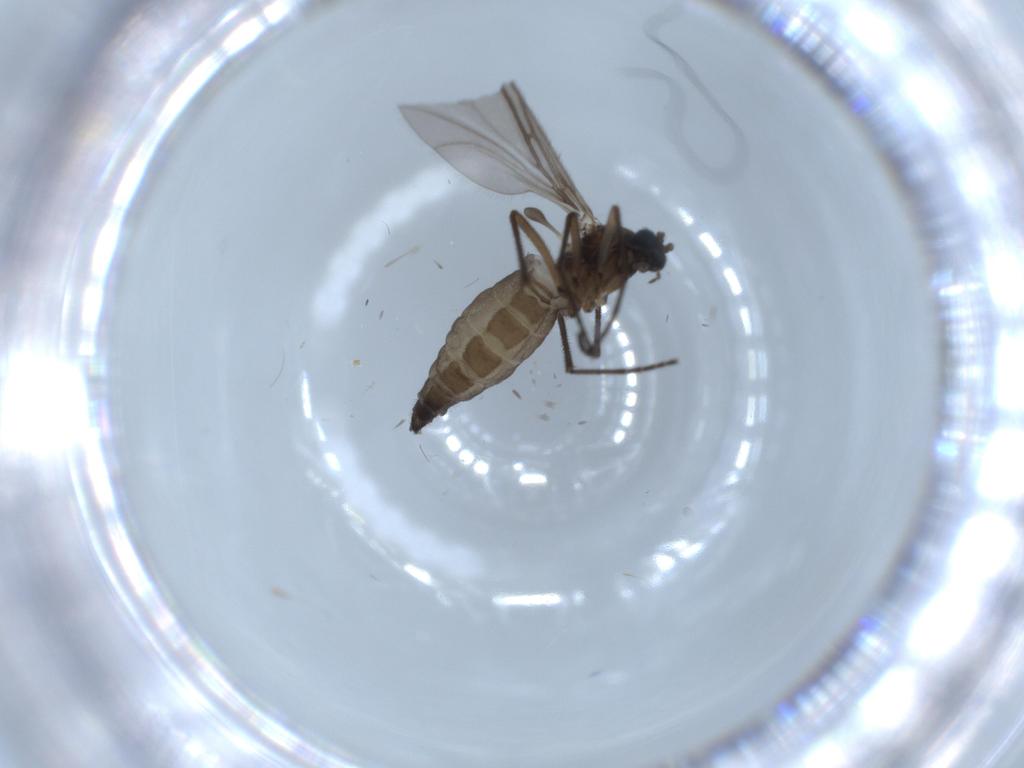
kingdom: Animalia
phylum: Arthropoda
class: Insecta
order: Diptera
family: Sciaridae
